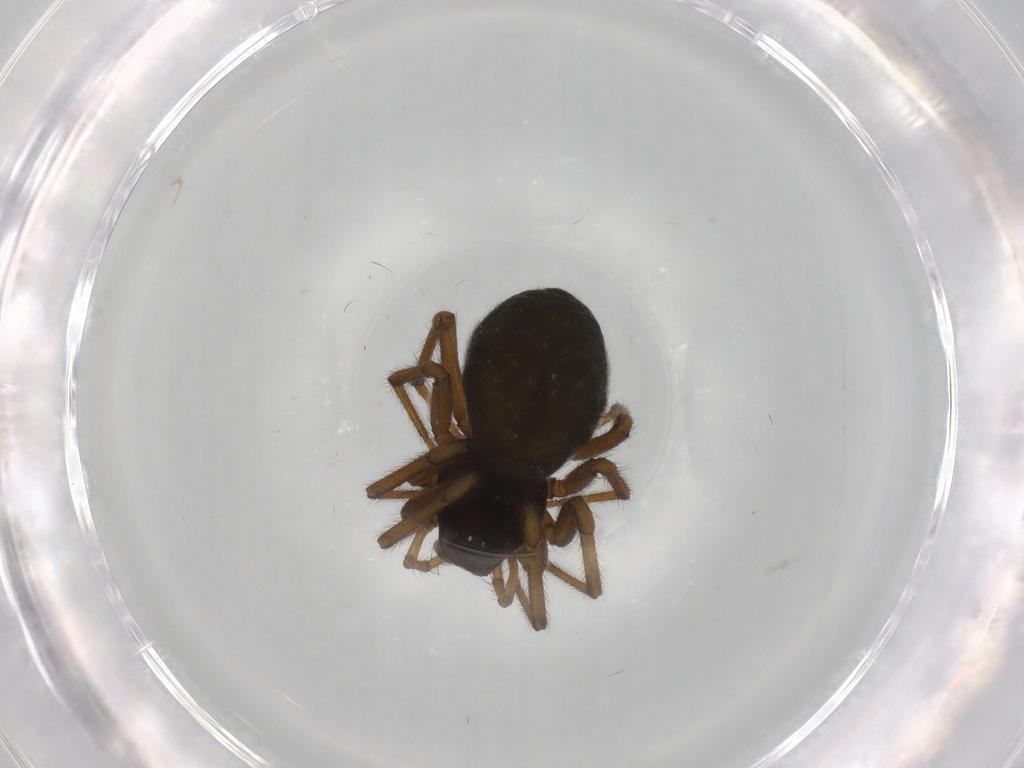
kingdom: Animalia
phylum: Arthropoda
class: Arachnida
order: Araneae
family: Linyphiidae
